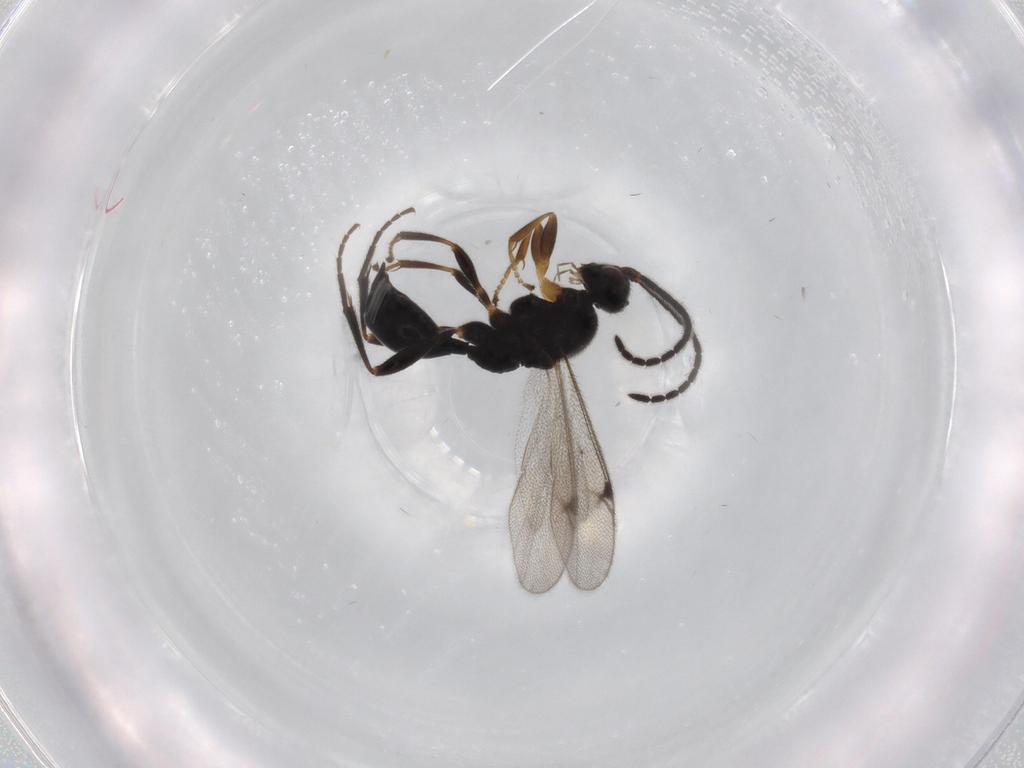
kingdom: Animalia
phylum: Arthropoda
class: Insecta
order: Hymenoptera
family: Proctotrupidae
